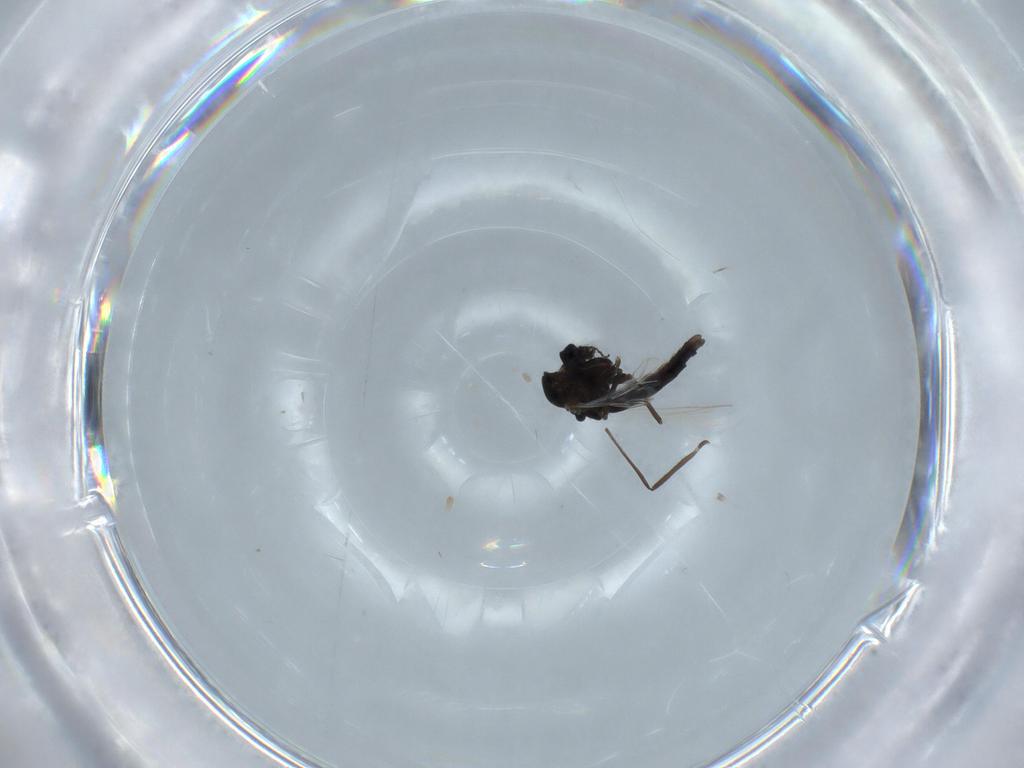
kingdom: Animalia
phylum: Arthropoda
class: Insecta
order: Diptera
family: Chironomidae
